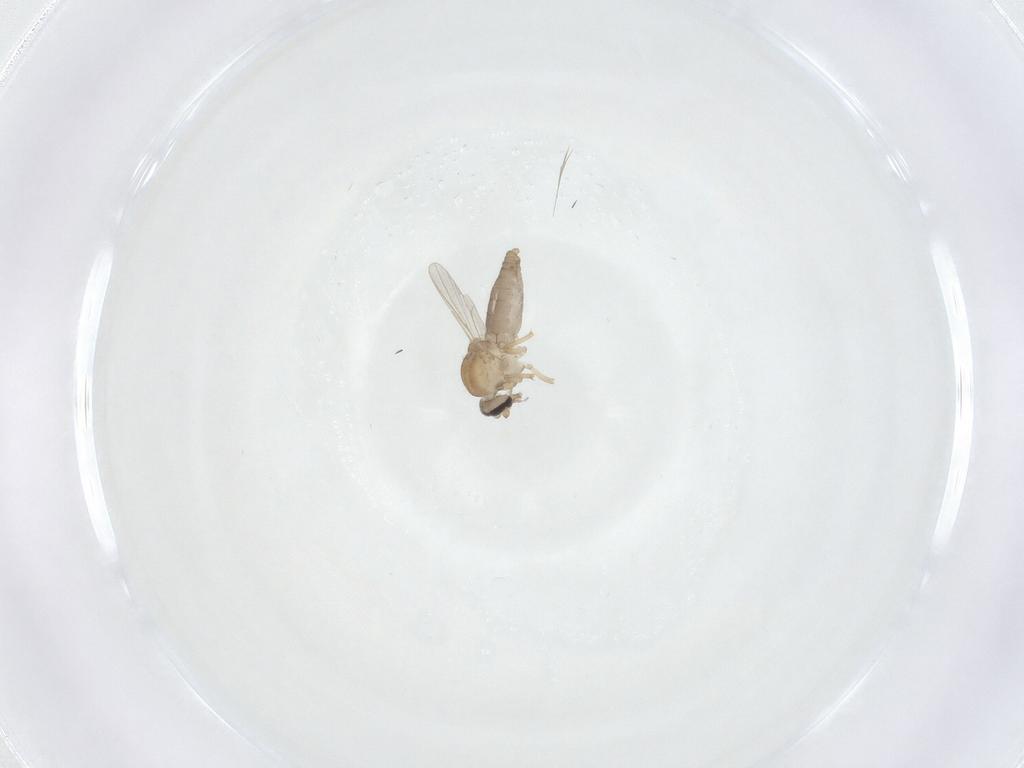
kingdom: Animalia
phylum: Arthropoda
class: Insecta
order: Diptera
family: Ceratopogonidae
